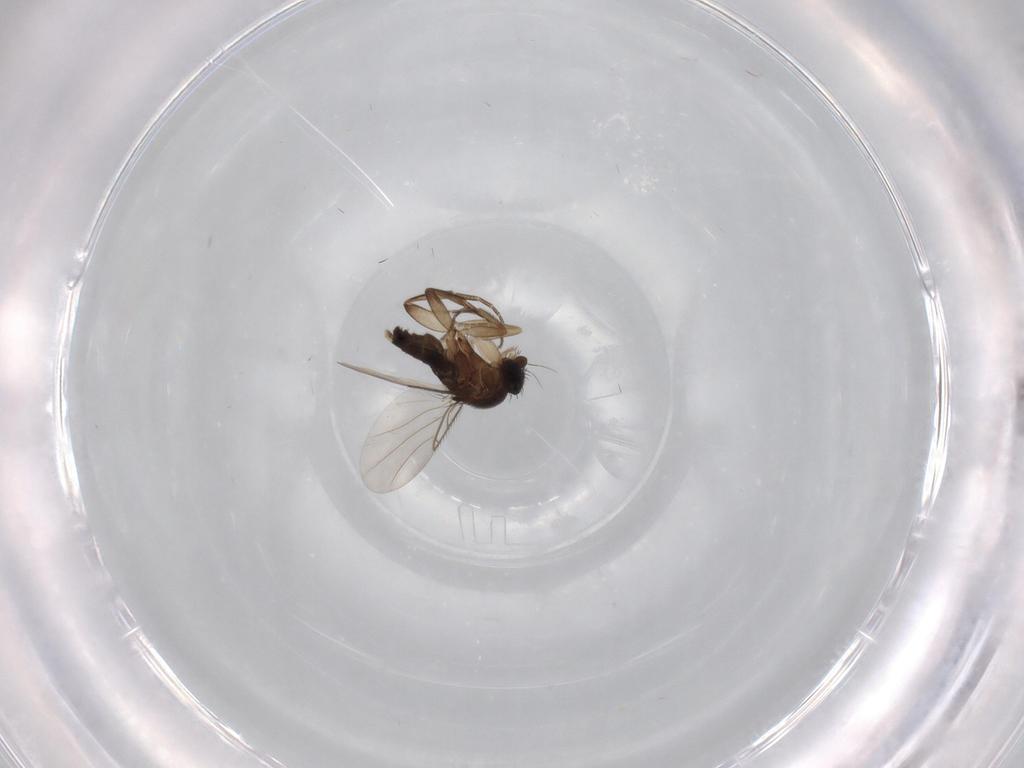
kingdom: Animalia
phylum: Arthropoda
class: Insecta
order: Diptera
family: Phoridae
